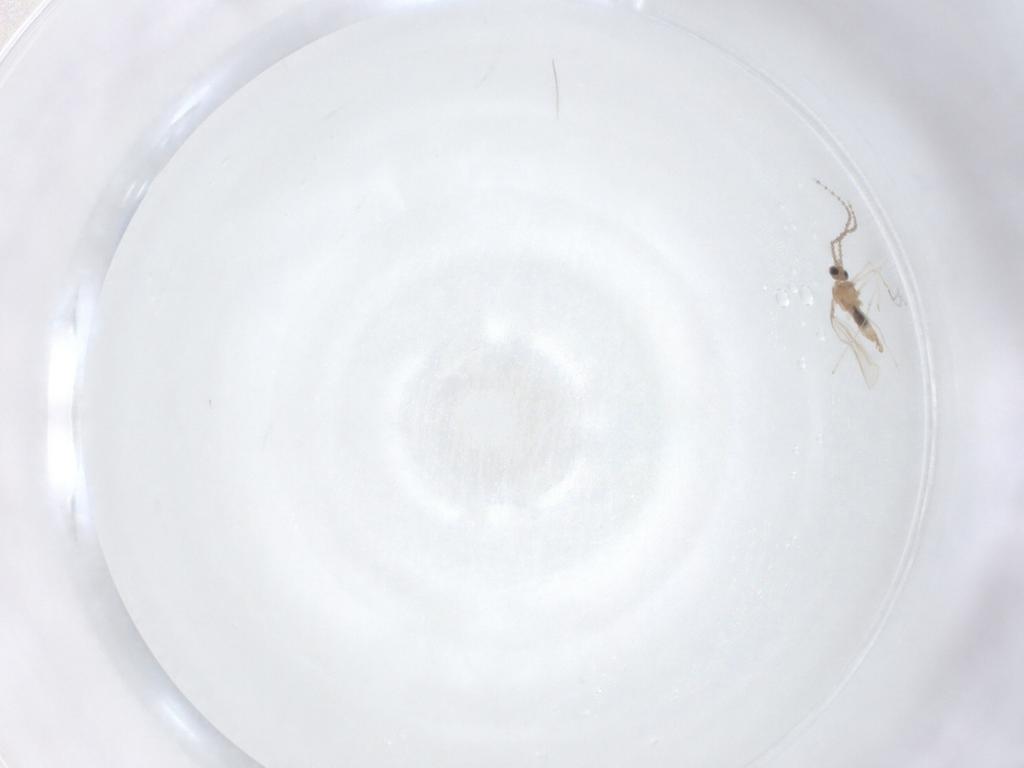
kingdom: Animalia
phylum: Arthropoda
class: Insecta
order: Diptera
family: Cecidomyiidae
